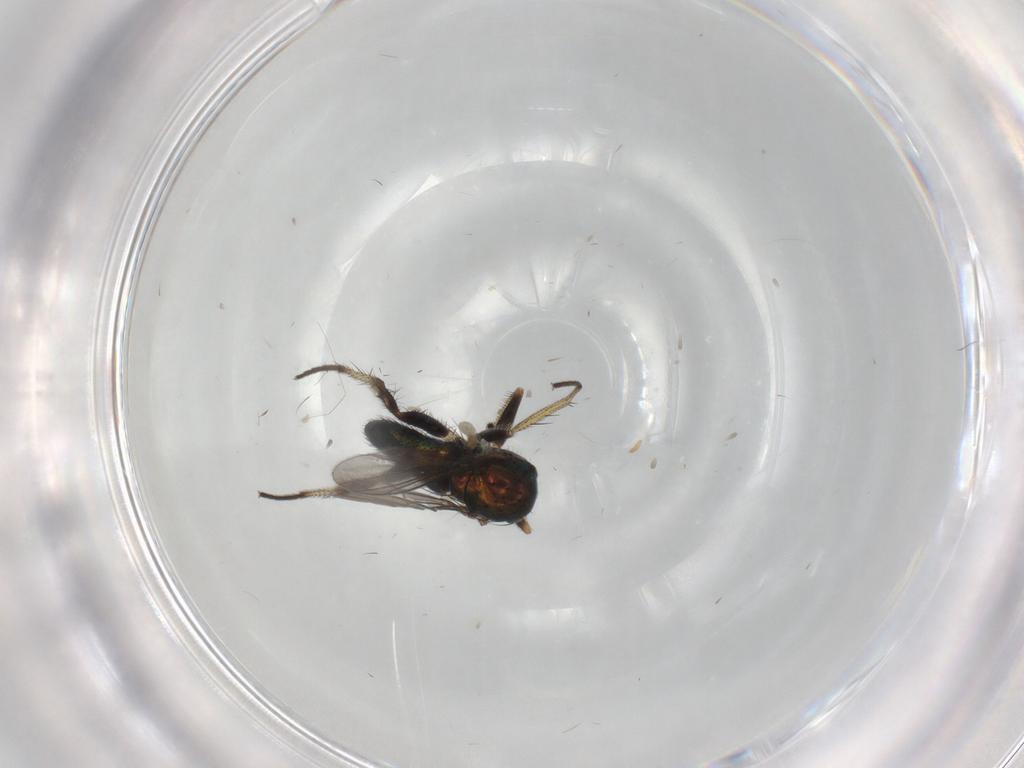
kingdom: Animalia
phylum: Arthropoda
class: Insecta
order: Diptera
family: Dolichopodidae
